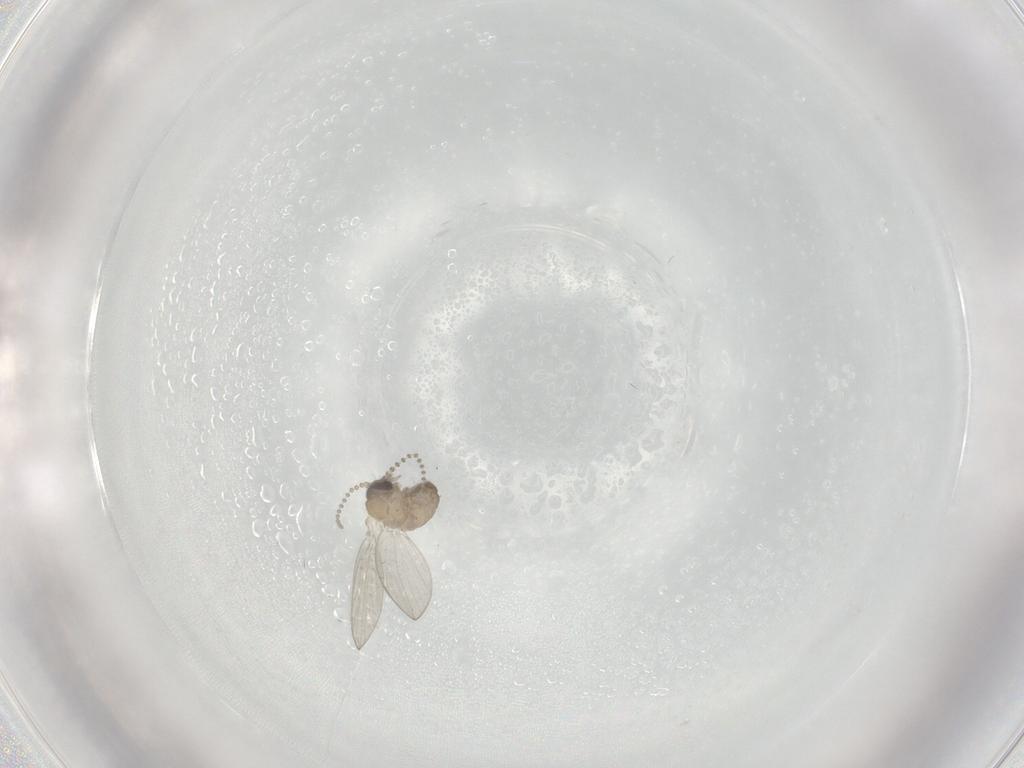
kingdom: Animalia
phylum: Arthropoda
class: Insecta
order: Diptera
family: Psychodidae
